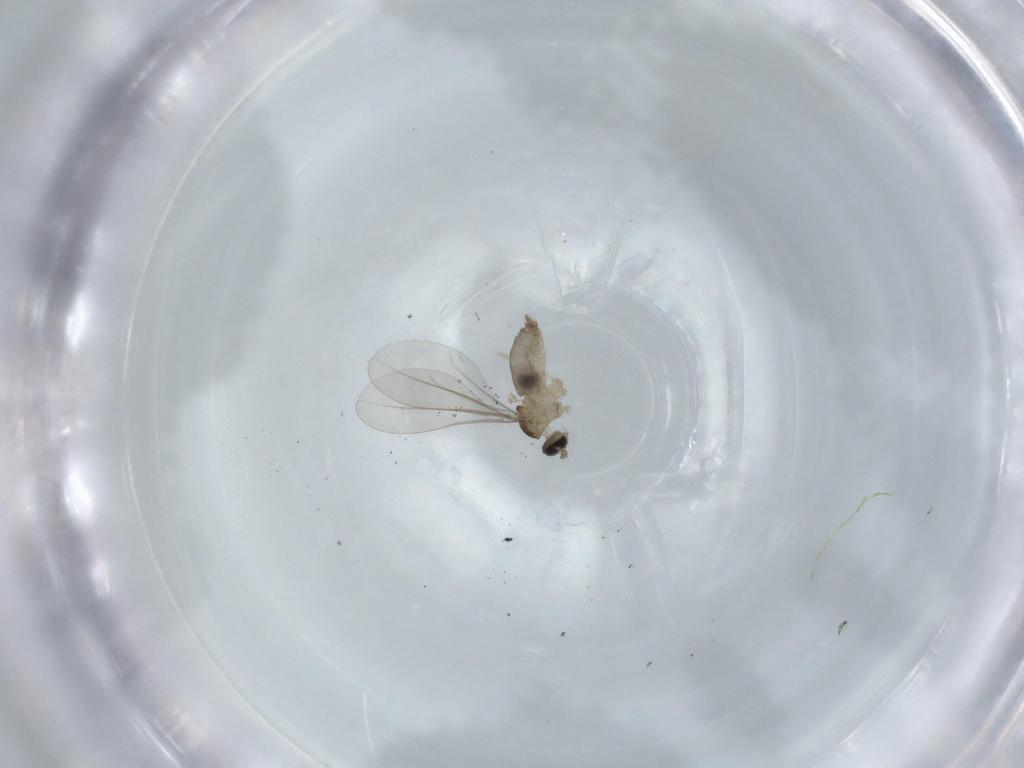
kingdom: Animalia
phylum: Arthropoda
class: Insecta
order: Diptera
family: Cecidomyiidae
